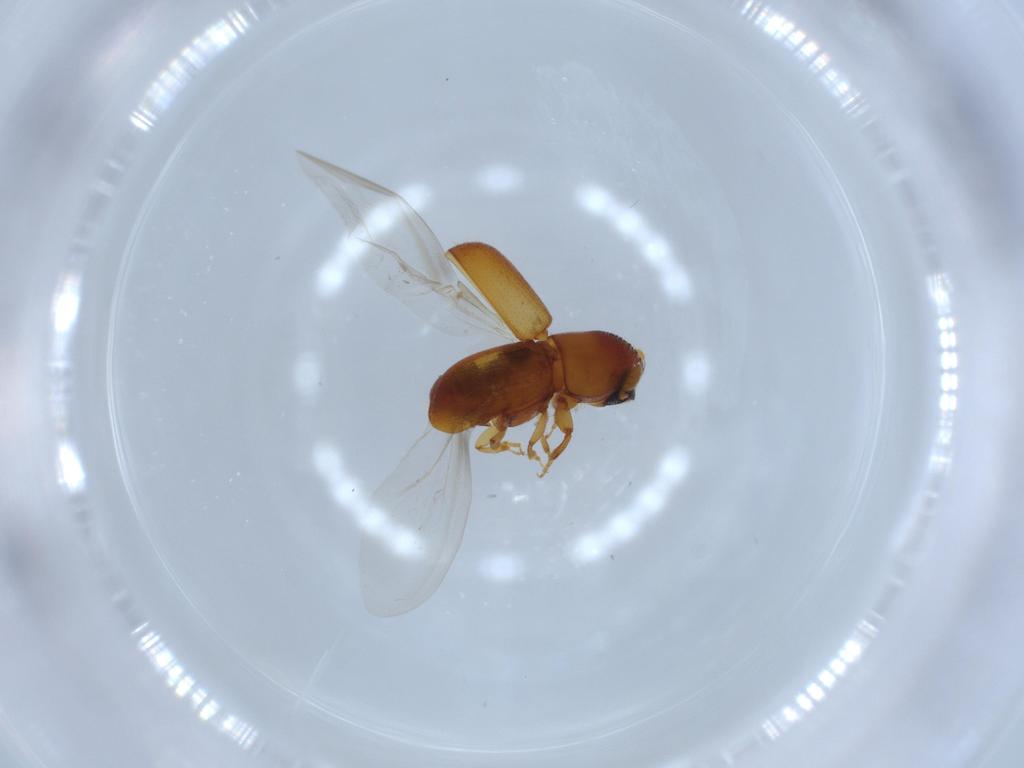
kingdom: Animalia
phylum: Arthropoda
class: Insecta
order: Coleoptera
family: Curculionidae
